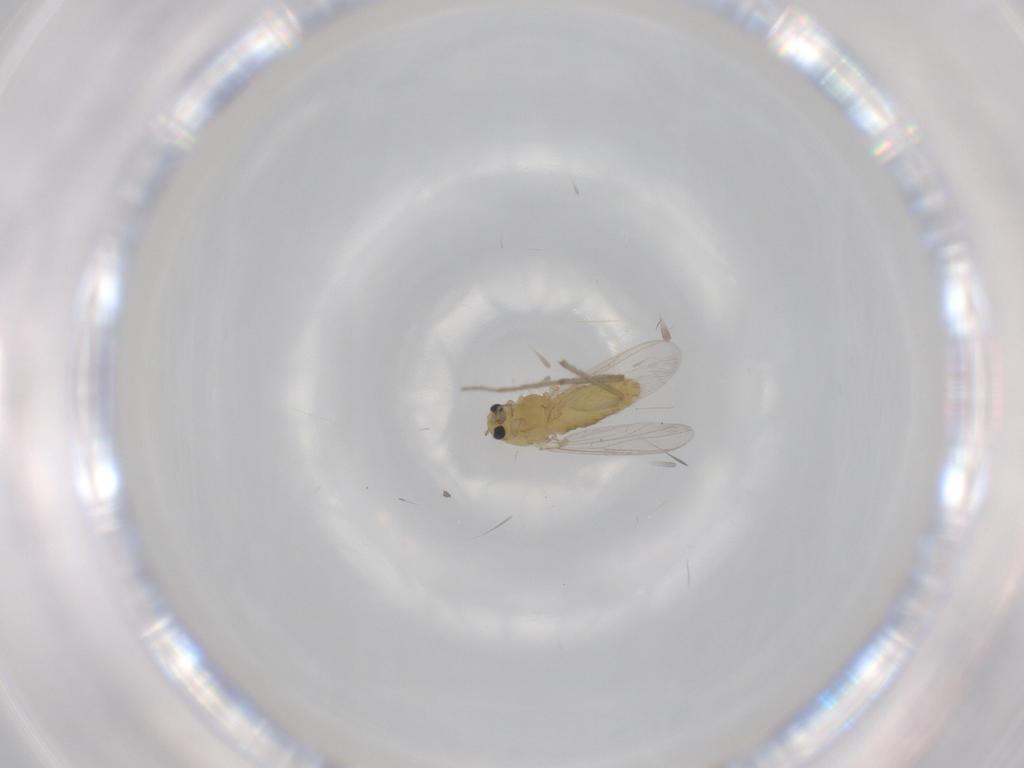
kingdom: Animalia
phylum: Arthropoda
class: Insecta
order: Diptera
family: Chironomidae
